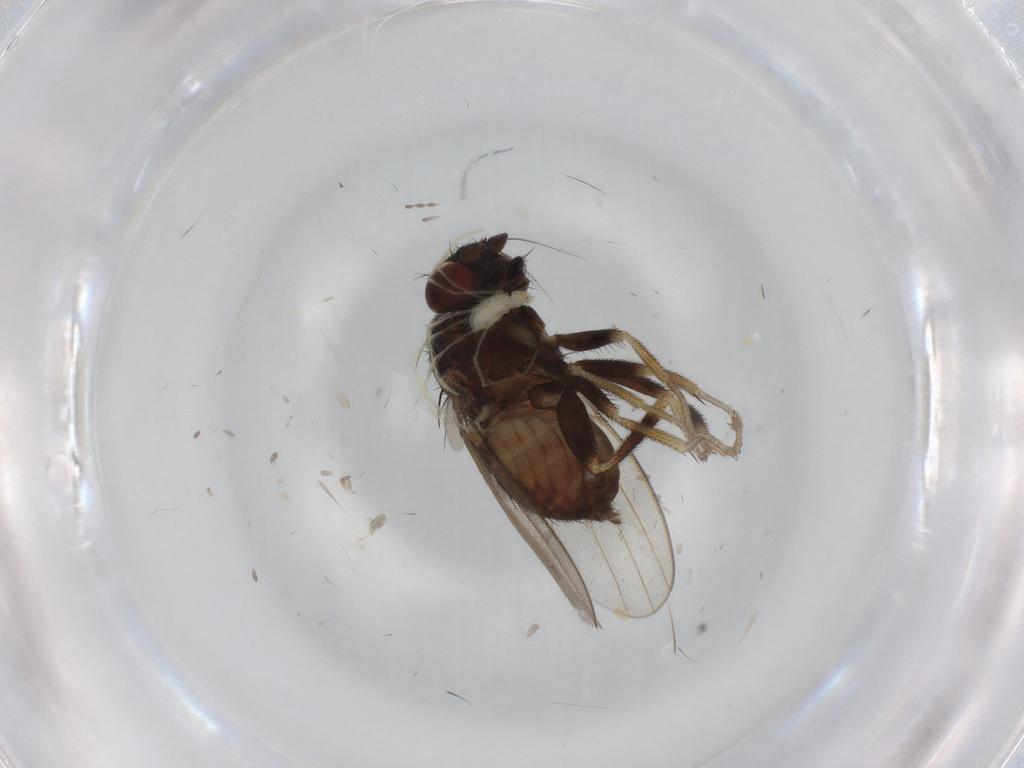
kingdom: Animalia
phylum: Arthropoda
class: Insecta
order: Diptera
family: Milichiidae
